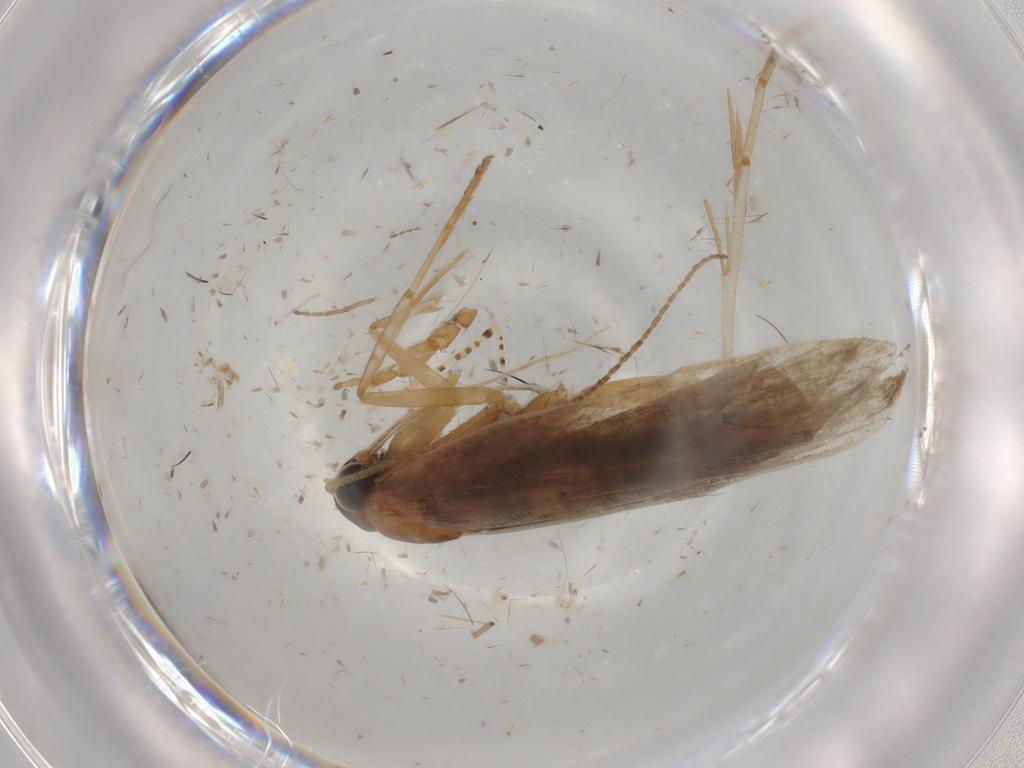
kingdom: Animalia
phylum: Arthropoda
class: Insecta
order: Lepidoptera
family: Gelechiidae
